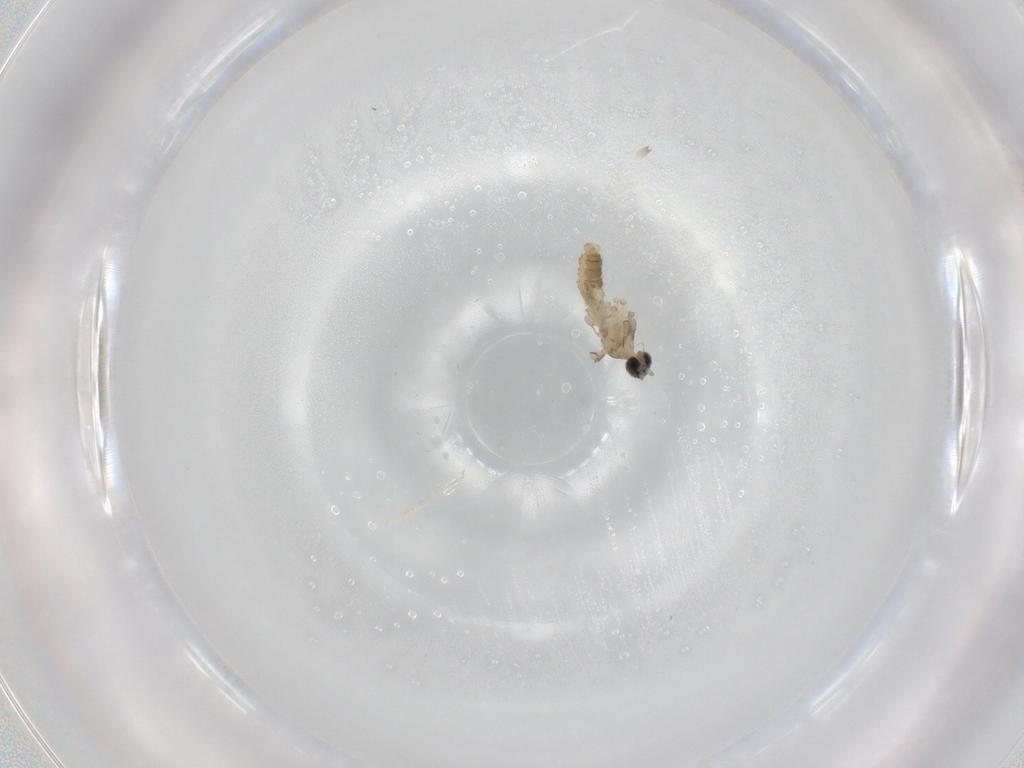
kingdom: Animalia
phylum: Arthropoda
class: Insecta
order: Diptera
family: Cecidomyiidae
